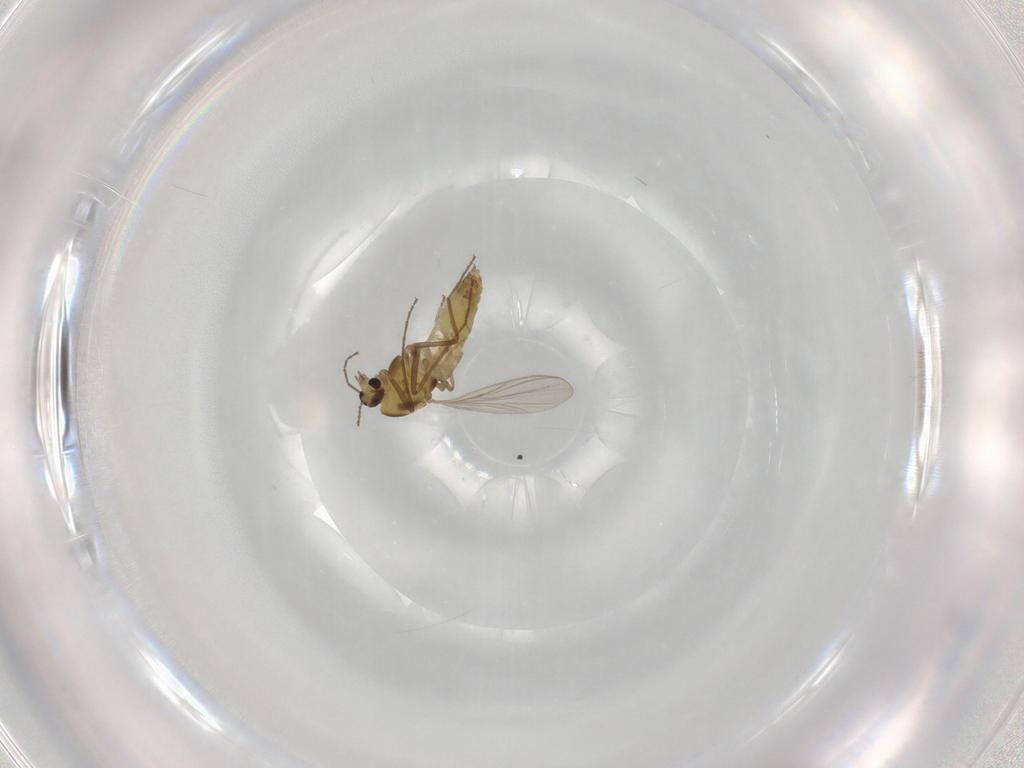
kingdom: Animalia
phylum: Arthropoda
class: Insecta
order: Diptera
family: Chironomidae
